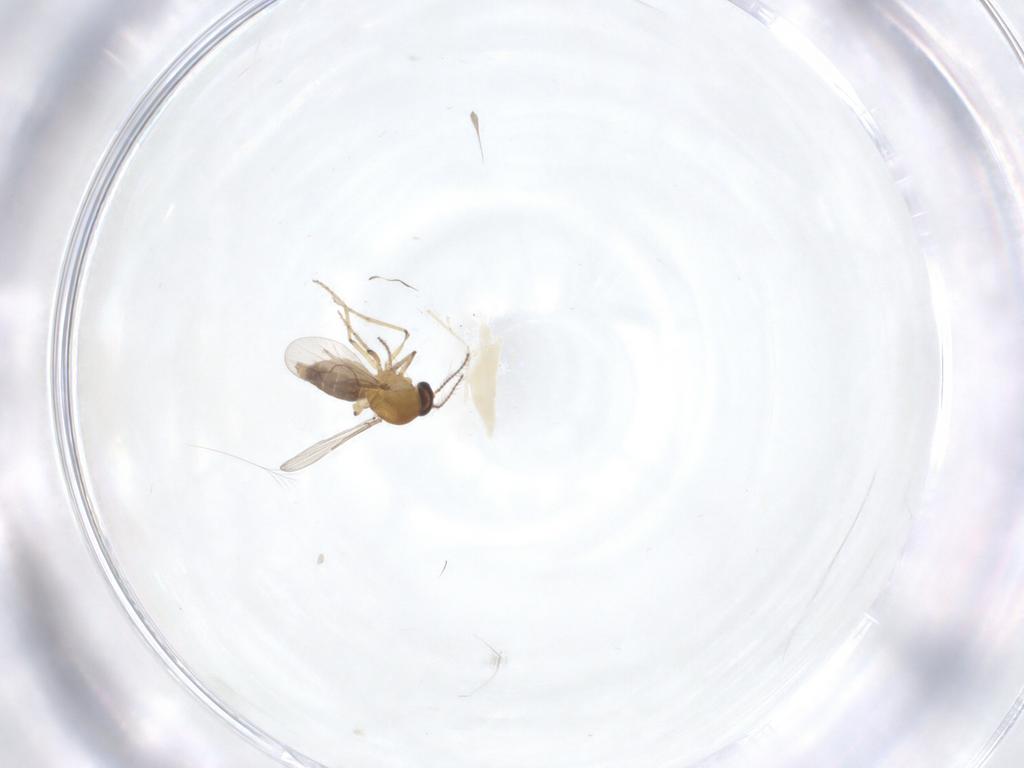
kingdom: Animalia
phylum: Arthropoda
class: Insecta
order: Diptera
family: Ceratopogonidae
